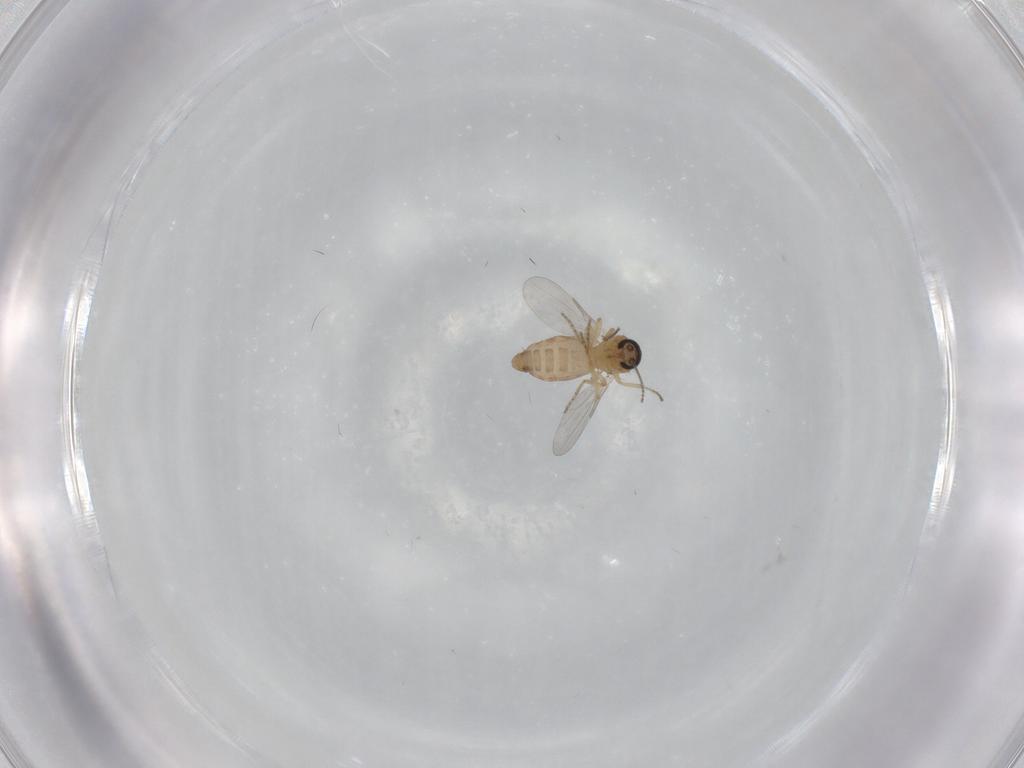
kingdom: Animalia
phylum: Arthropoda
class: Insecta
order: Diptera
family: Ceratopogonidae
